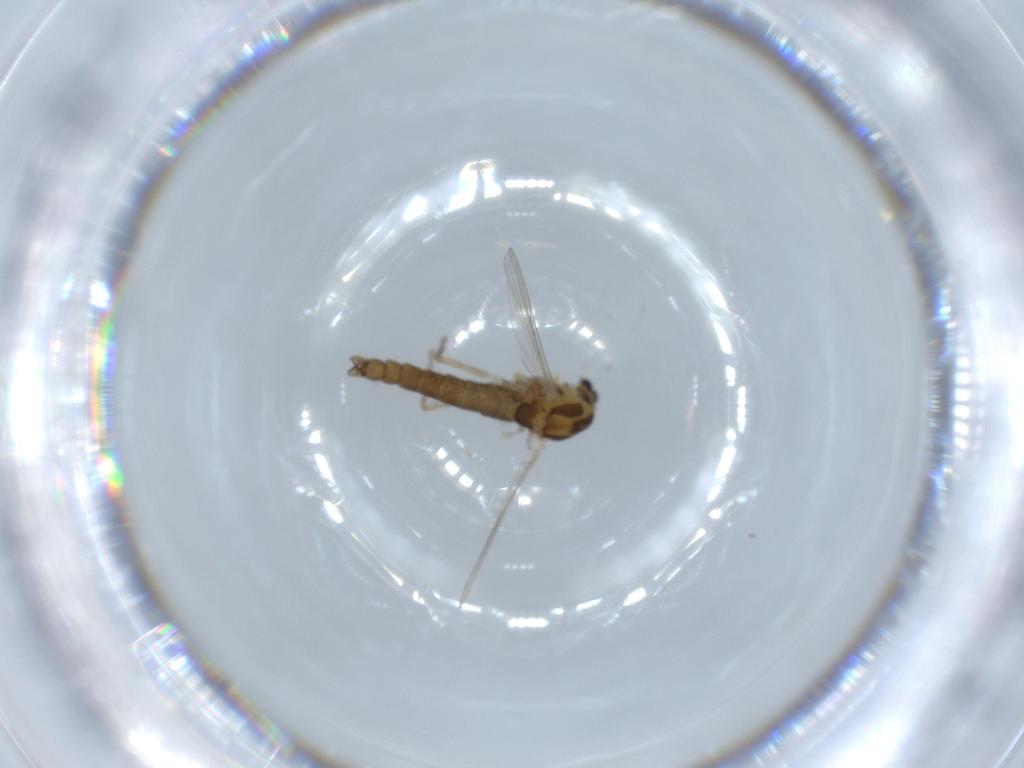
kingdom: Animalia
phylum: Arthropoda
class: Insecta
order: Diptera
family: Chironomidae
